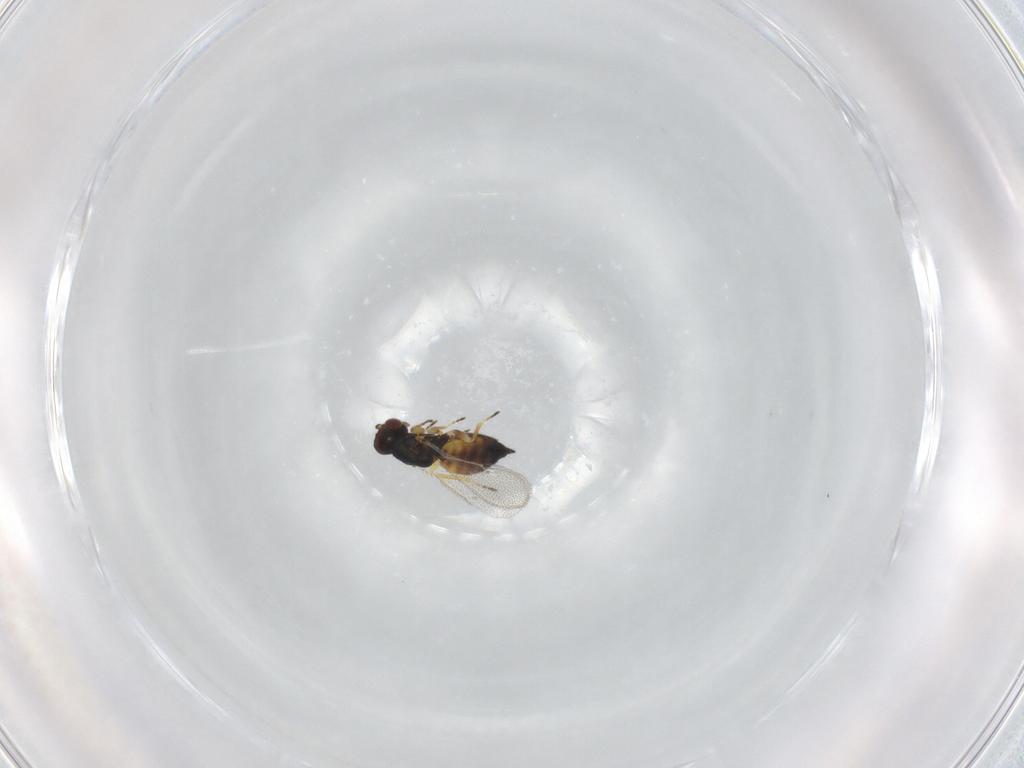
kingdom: Animalia
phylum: Arthropoda
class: Insecta
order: Hymenoptera
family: Eulophidae
